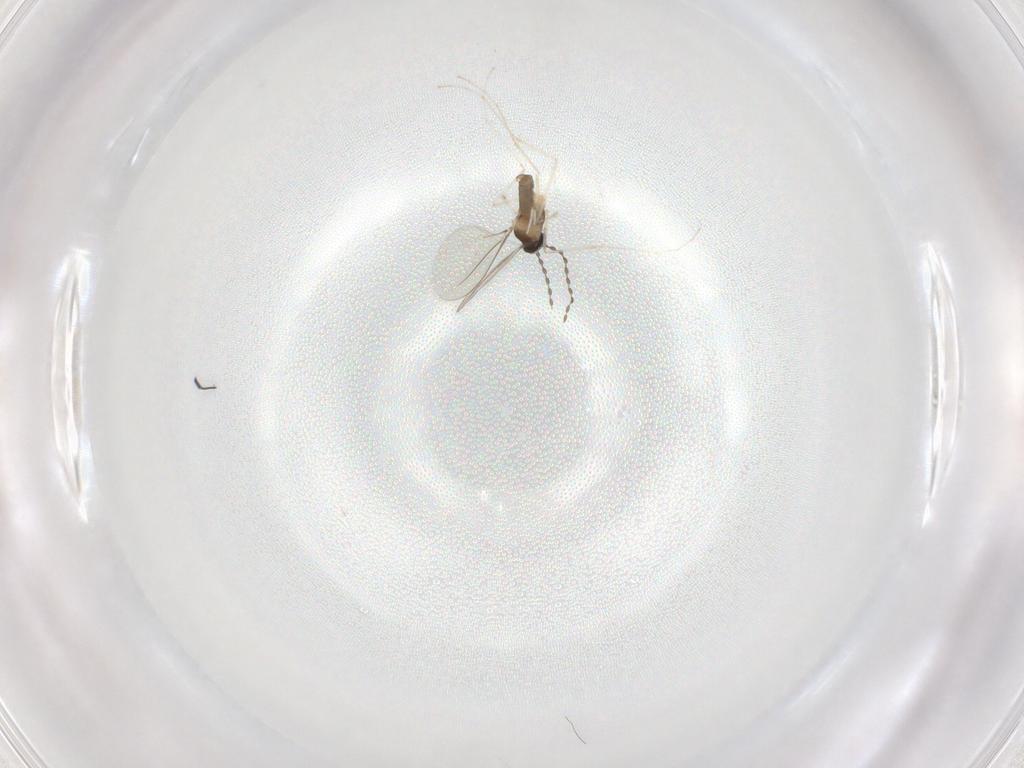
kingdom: Animalia
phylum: Arthropoda
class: Insecta
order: Diptera
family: Cecidomyiidae
